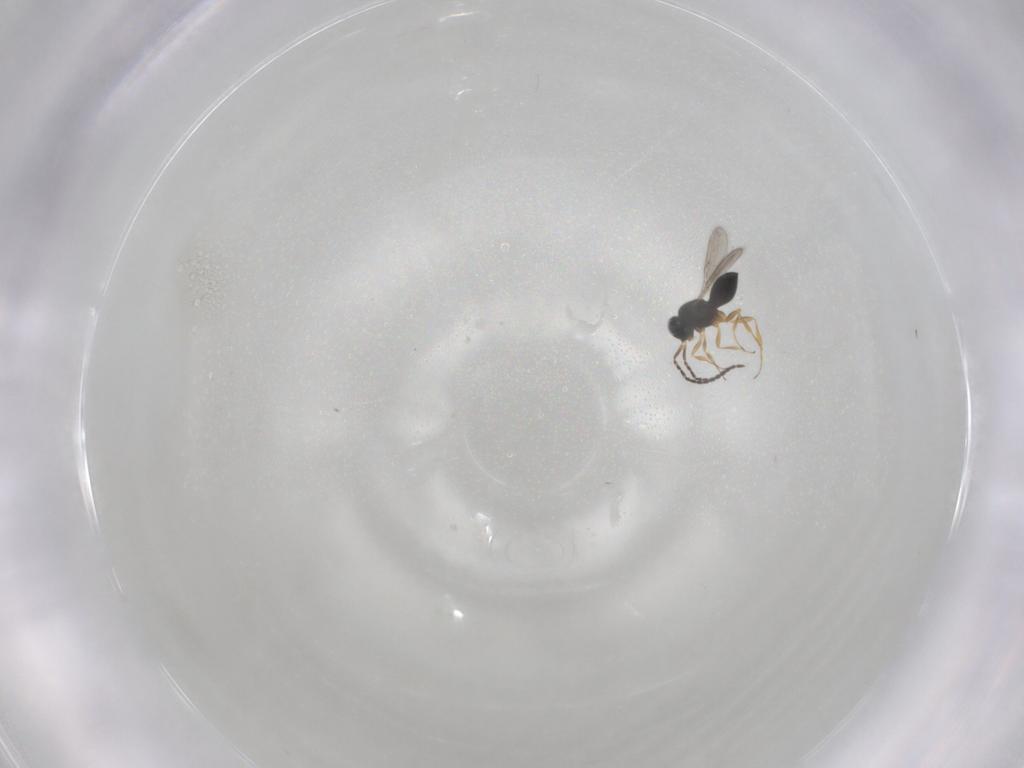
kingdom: Animalia
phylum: Arthropoda
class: Insecta
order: Hymenoptera
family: Scelionidae
